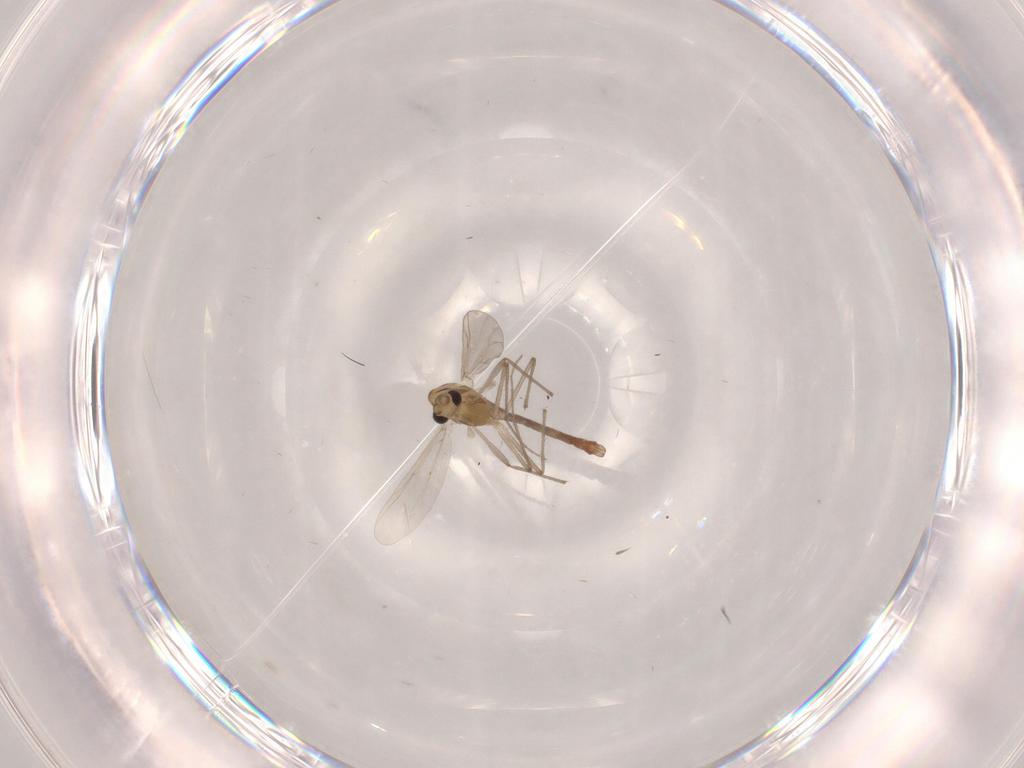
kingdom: Animalia
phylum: Arthropoda
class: Insecta
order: Diptera
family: Chironomidae
